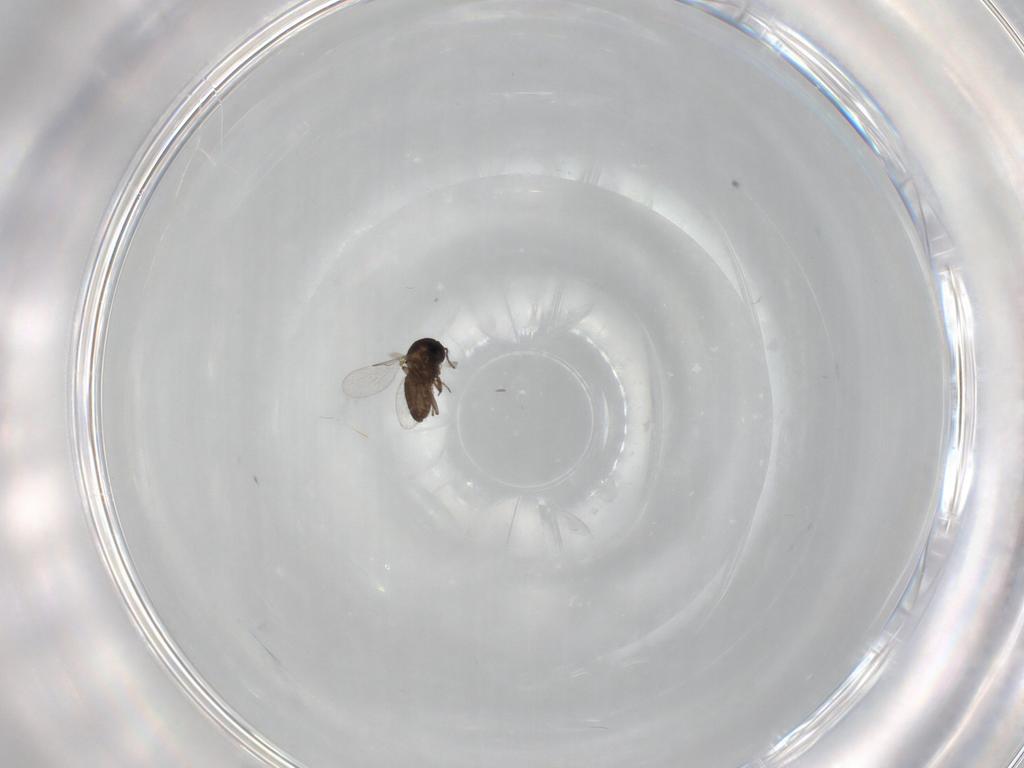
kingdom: Animalia
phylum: Arthropoda
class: Insecta
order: Diptera
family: Ceratopogonidae
